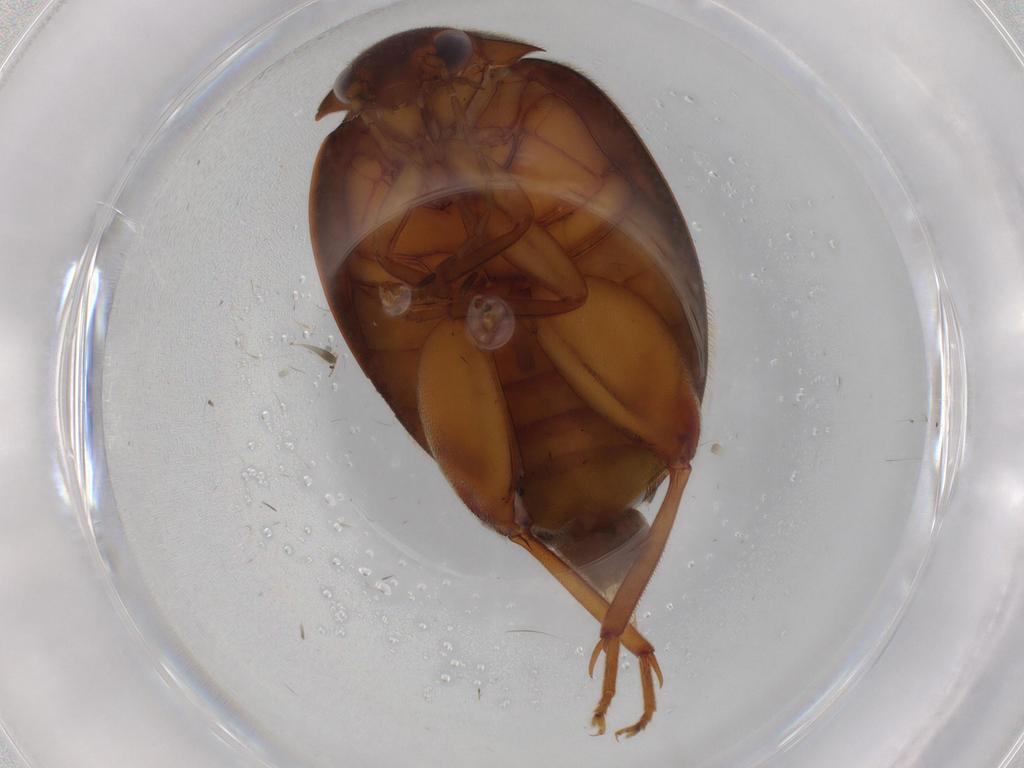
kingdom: Animalia
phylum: Arthropoda
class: Insecta
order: Coleoptera
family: Scirtidae
